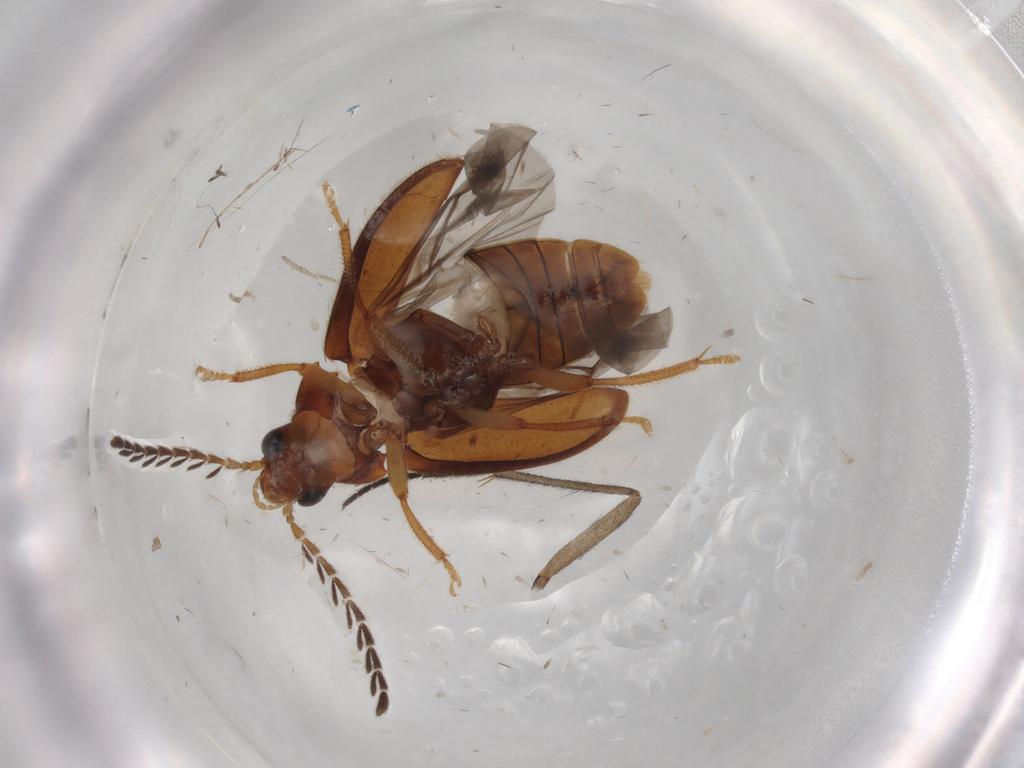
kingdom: Animalia
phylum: Arthropoda
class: Insecta
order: Coleoptera
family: Ptilodactylidae
